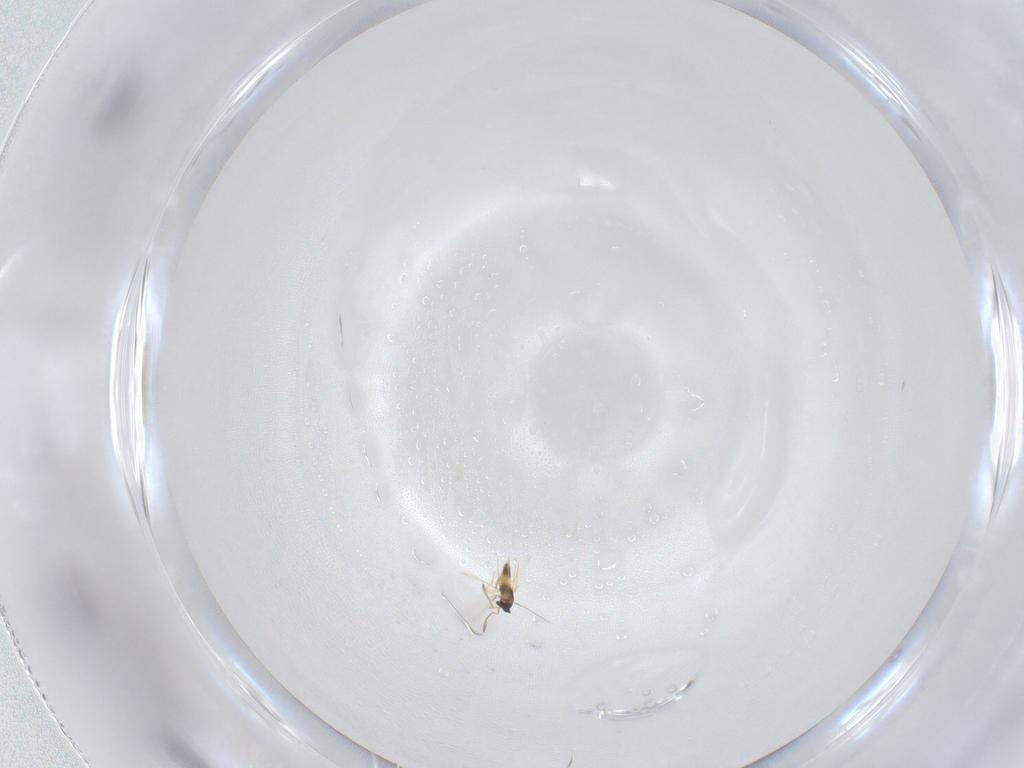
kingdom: Animalia
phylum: Arthropoda
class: Insecta
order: Hymenoptera
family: Mymaridae
